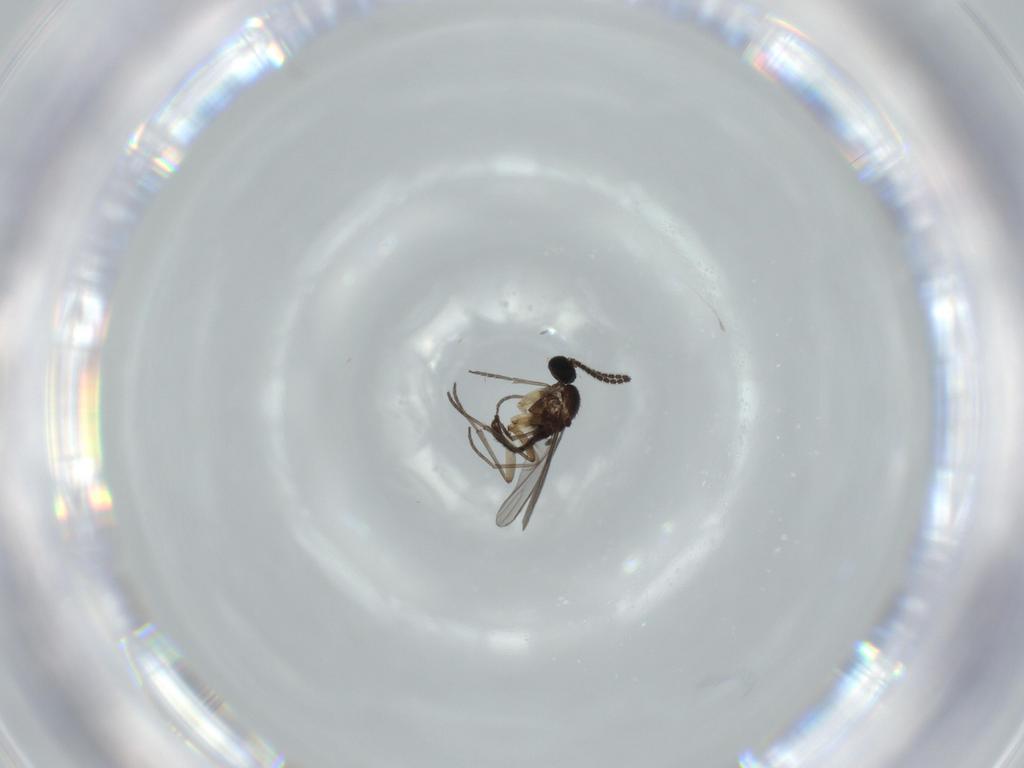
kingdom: Animalia
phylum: Arthropoda
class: Insecta
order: Diptera
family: Sciaridae
